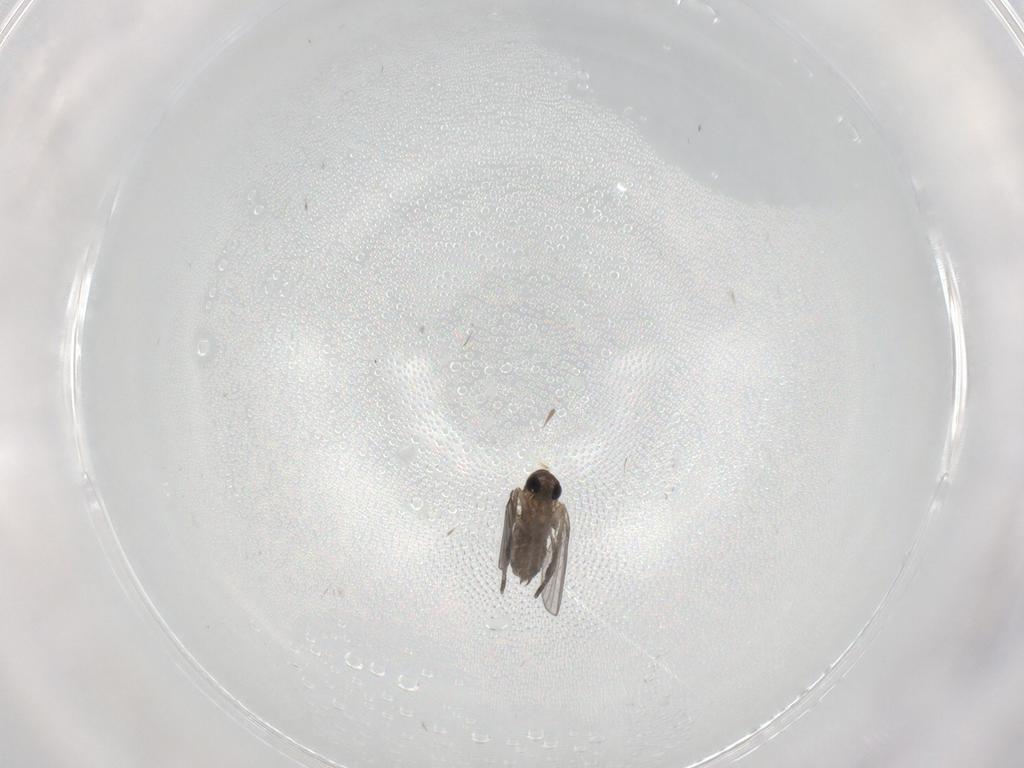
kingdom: Animalia
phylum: Arthropoda
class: Insecta
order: Diptera
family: Psychodidae
